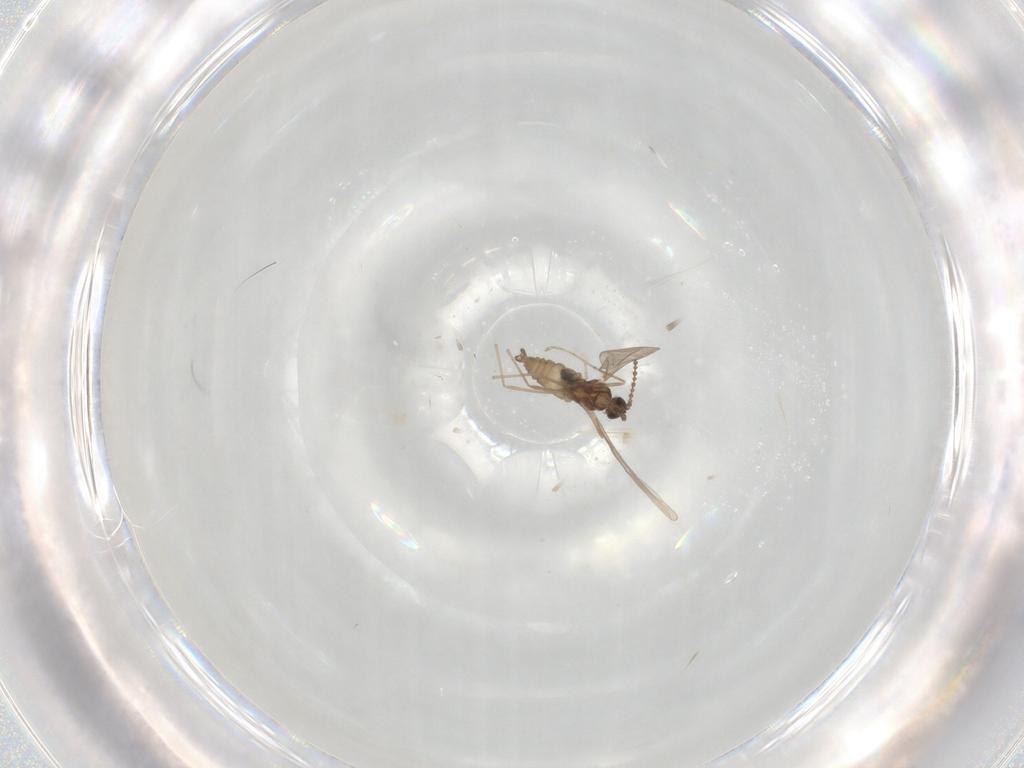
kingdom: Animalia
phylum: Arthropoda
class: Insecta
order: Diptera
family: Cecidomyiidae
